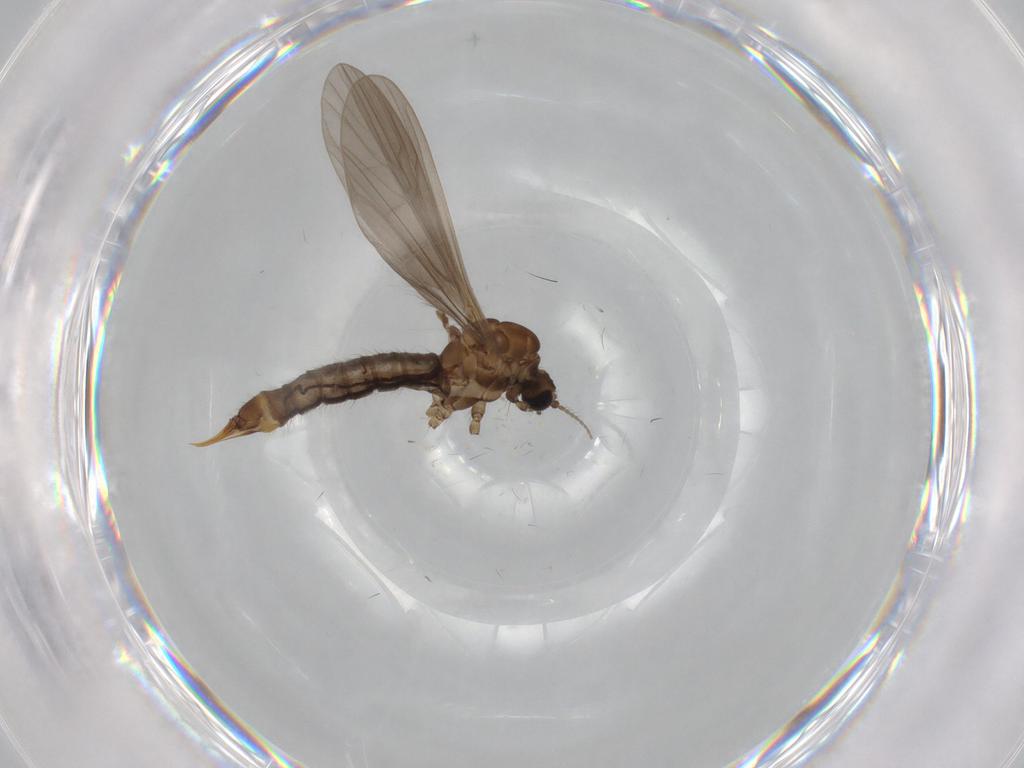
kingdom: Animalia
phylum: Arthropoda
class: Insecta
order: Diptera
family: Limoniidae
